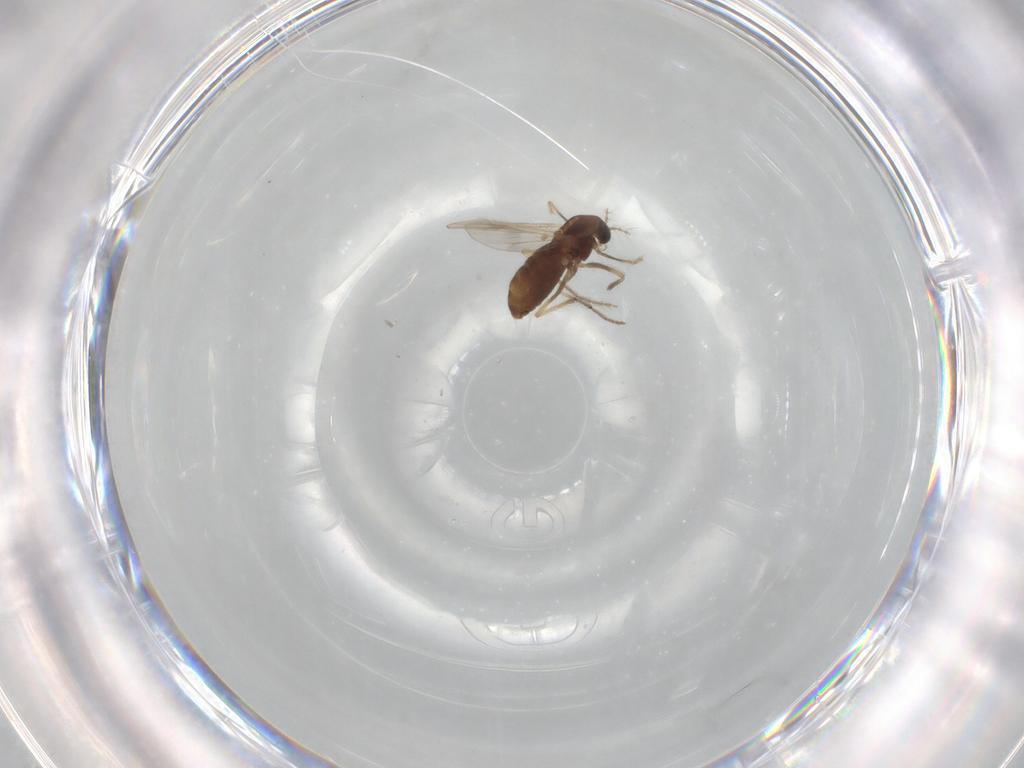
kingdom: Animalia
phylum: Arthropoda
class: Insecta
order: Diptera
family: Chironomidae
